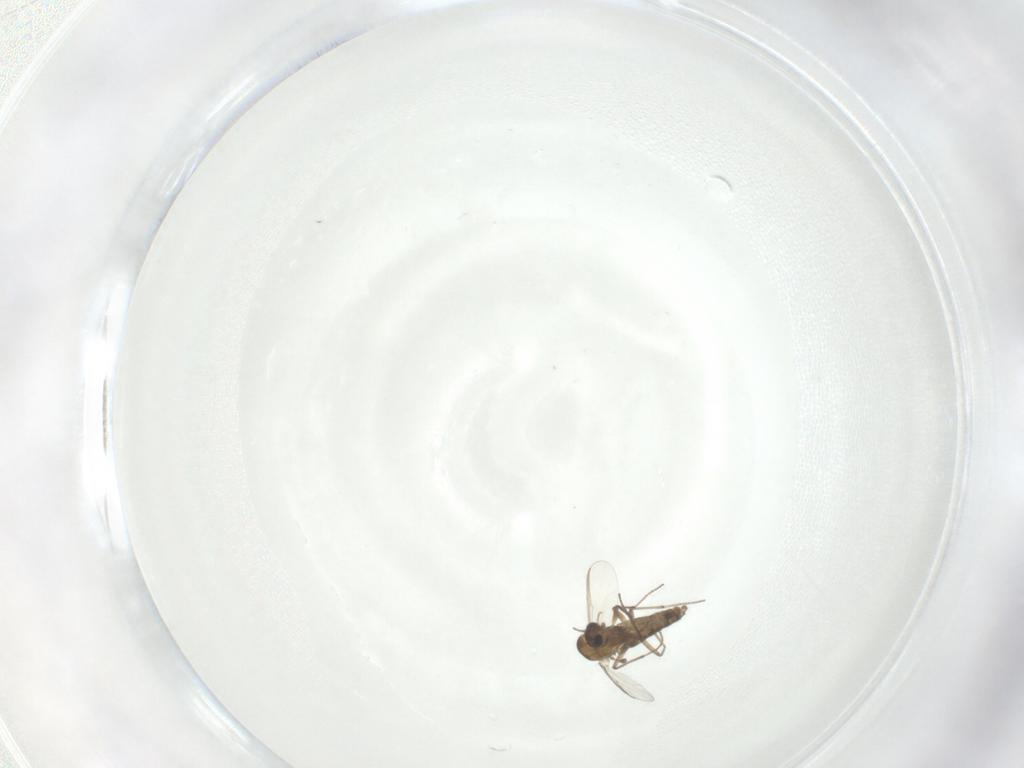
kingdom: Animalia
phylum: Arthropoda
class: Insecta
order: Diptera
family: Chironomidae
